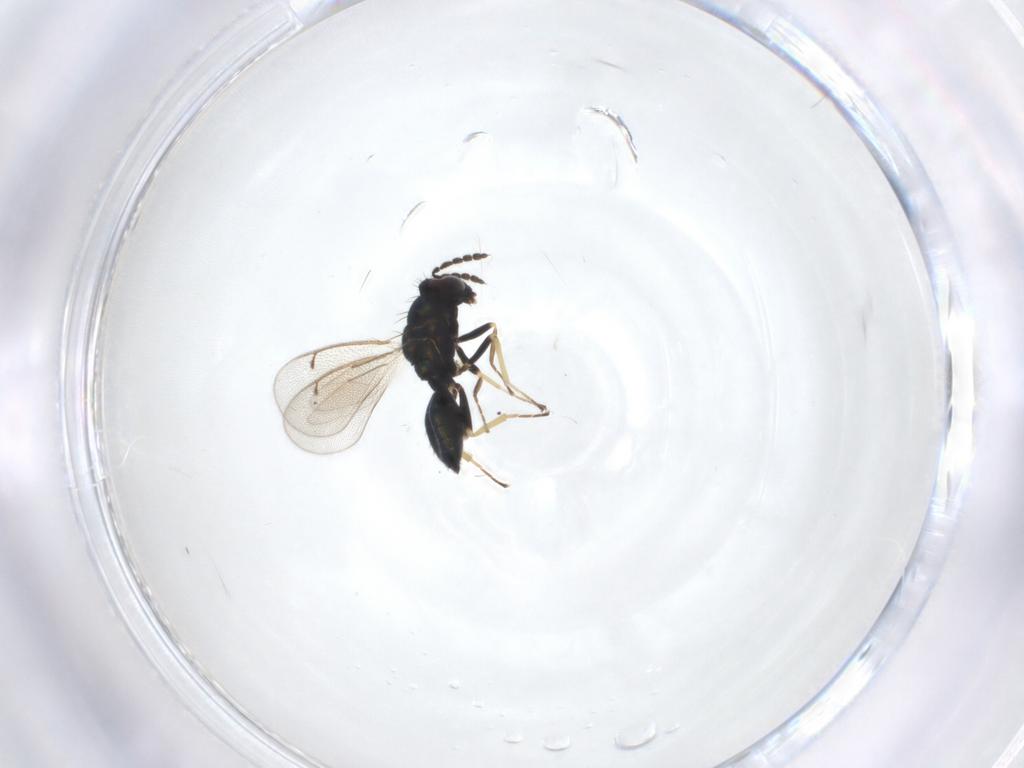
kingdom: Animalia
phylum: Arthropoda
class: Insecta
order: Hymenoptera
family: Eulophidae
